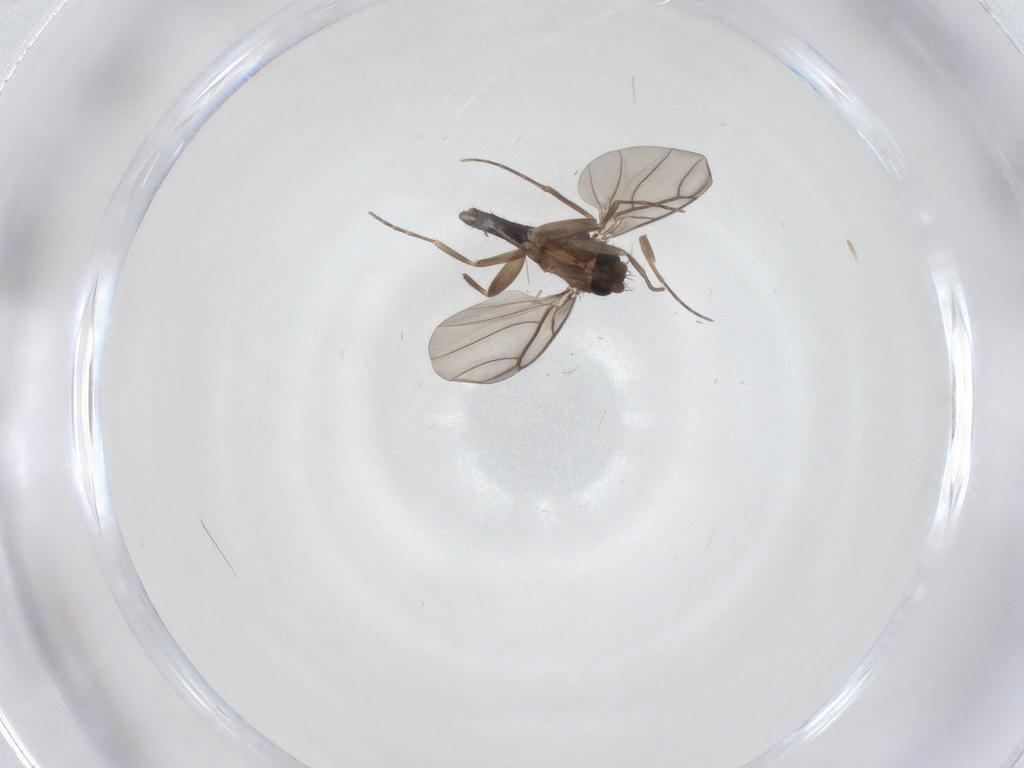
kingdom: Animalia
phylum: Arthropoda
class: Insecta
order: Diptera
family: Phoridae
